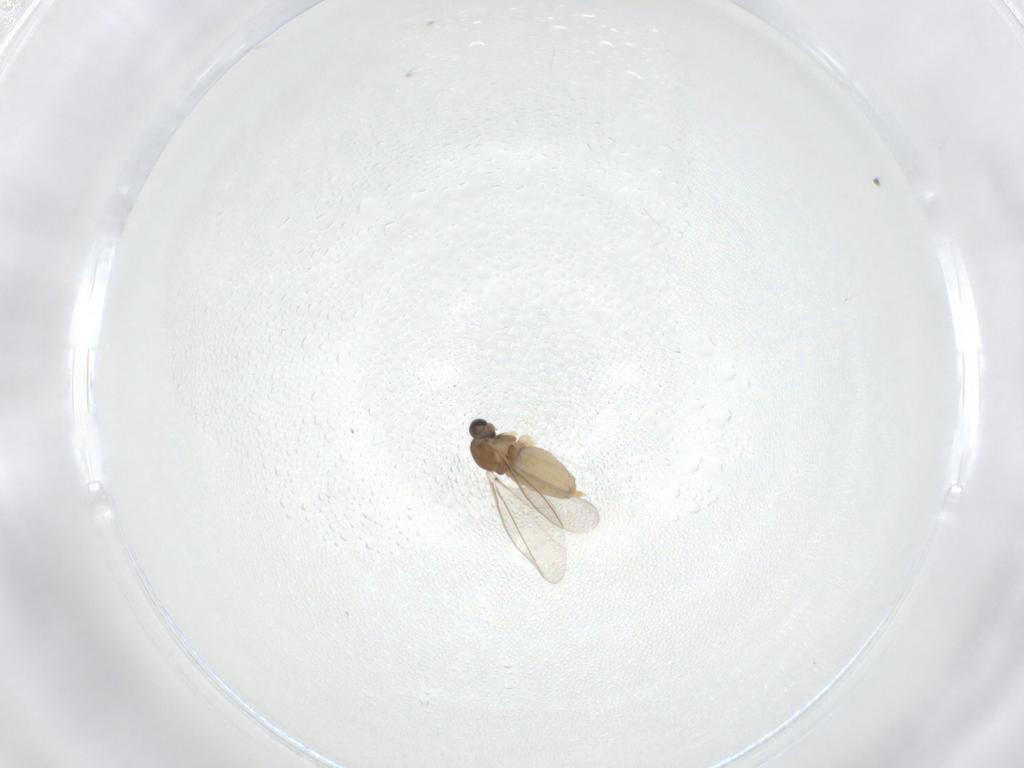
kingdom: Animalia
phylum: Arthropoda
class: Insecta
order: Diptera
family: Cecidomyiidae
